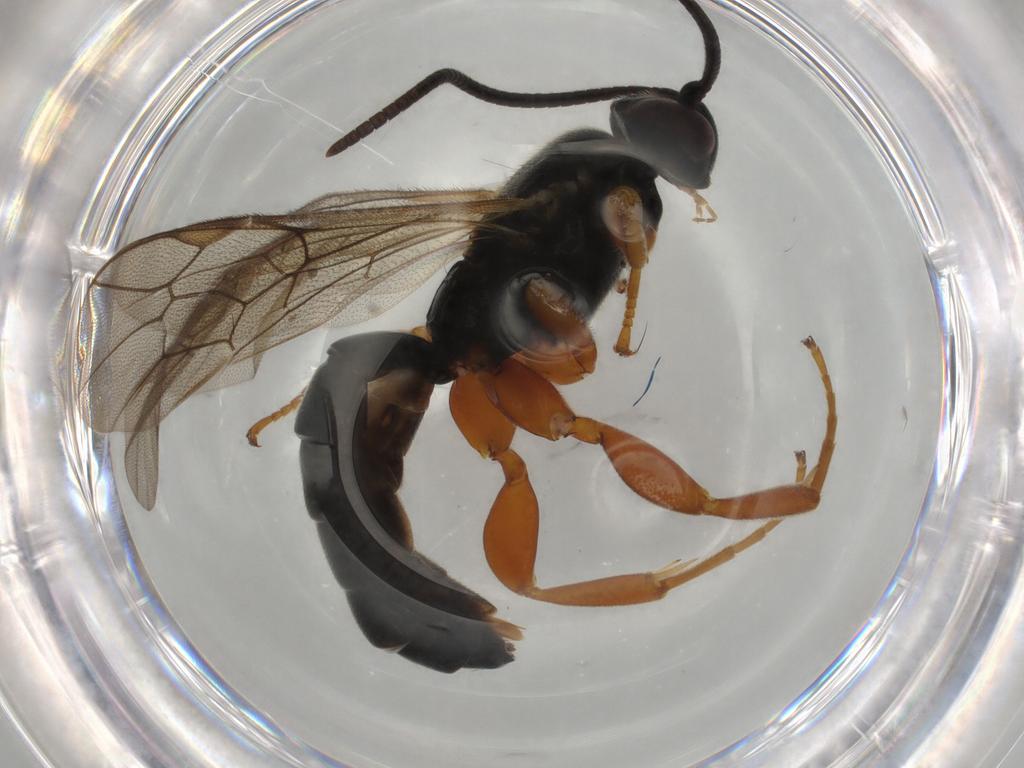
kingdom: Animalia
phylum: Arthropoda
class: Insecta
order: Hymenoptera
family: Ichneumonidae
